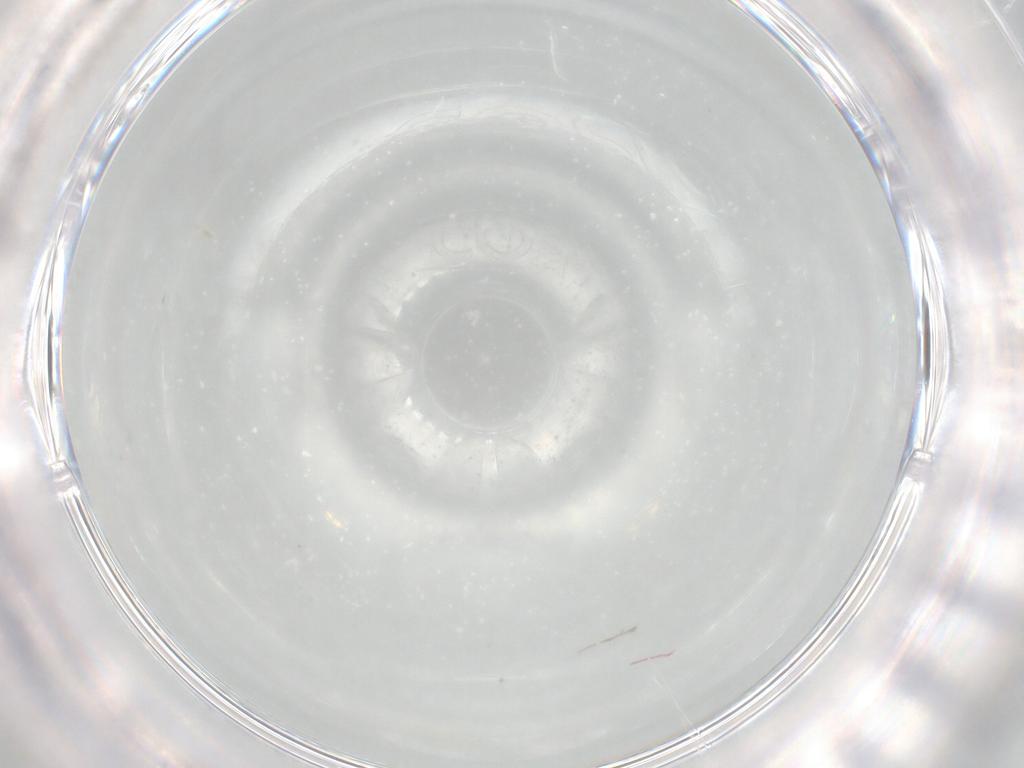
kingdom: Animalia
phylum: Arthropoda
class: Insecta
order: Diptera
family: Cecidomyiidae
